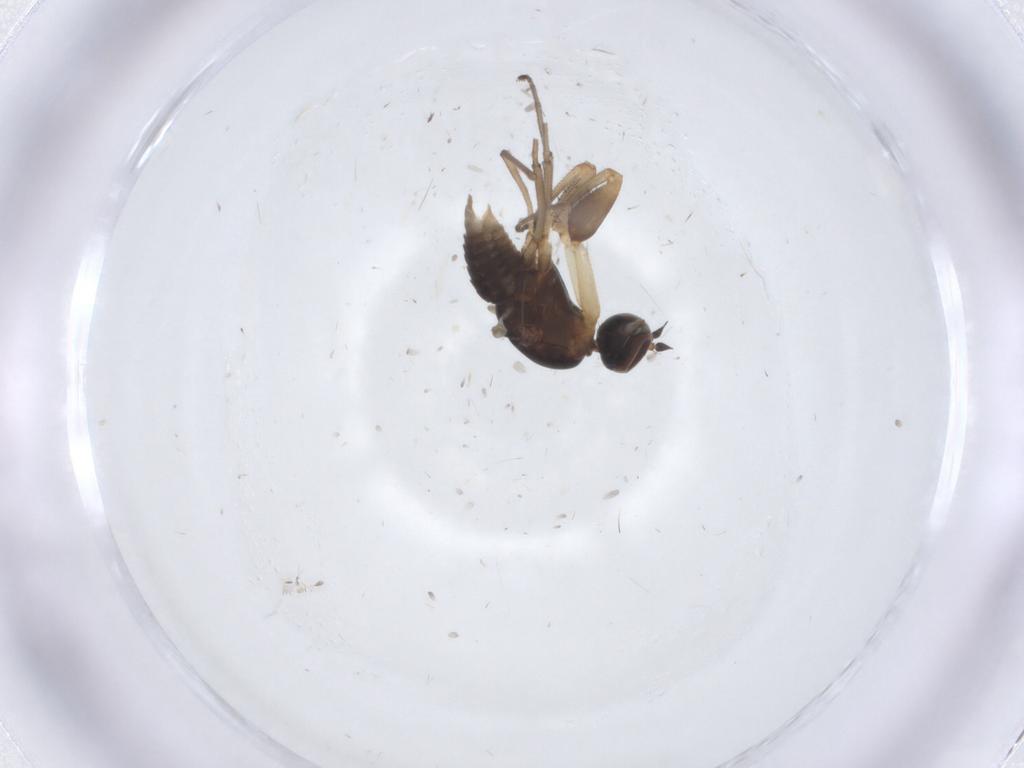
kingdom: Animalia
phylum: Arthropoda
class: Insecta
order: Diptera
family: Empididae
